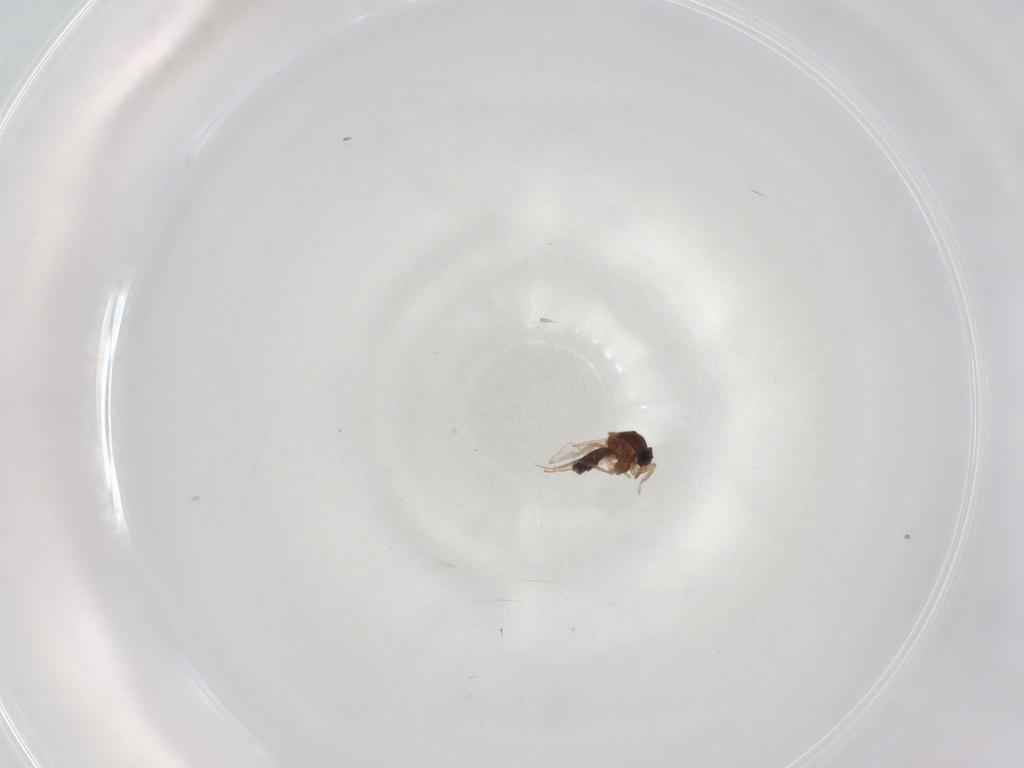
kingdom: Animalia
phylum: Arthropoda
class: Insecta
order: Diptera
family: Ceratopogonidae
